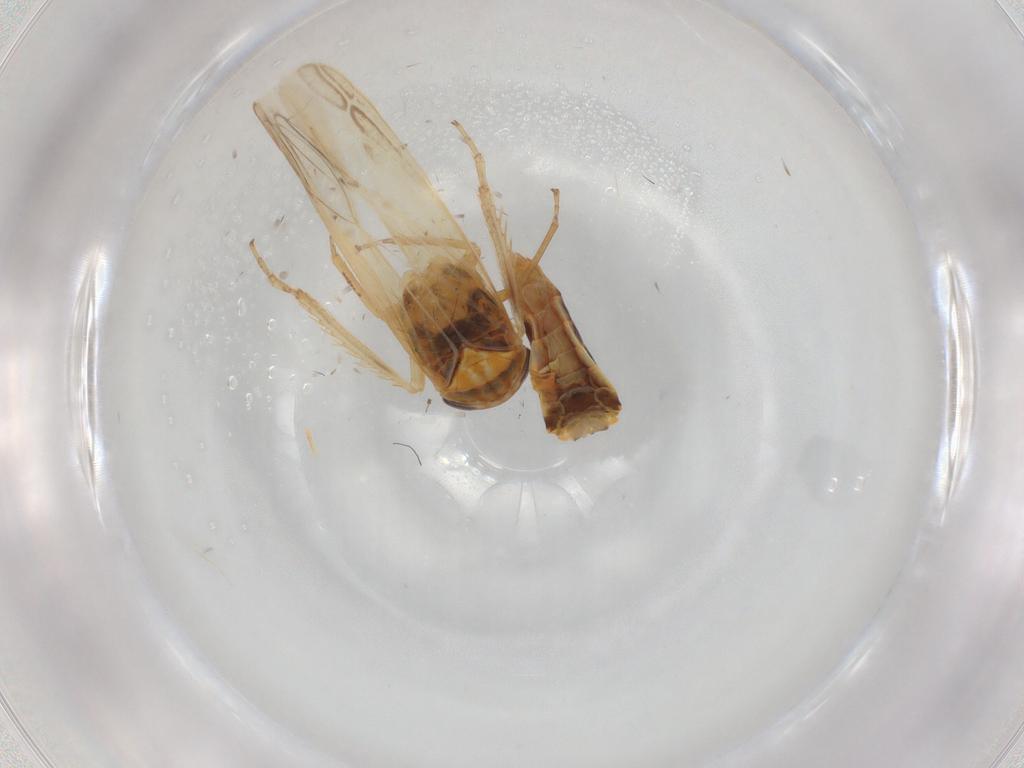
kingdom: Animalia
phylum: Arthropoda
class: Insecta
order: Hemiptera
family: Cicadellidae
